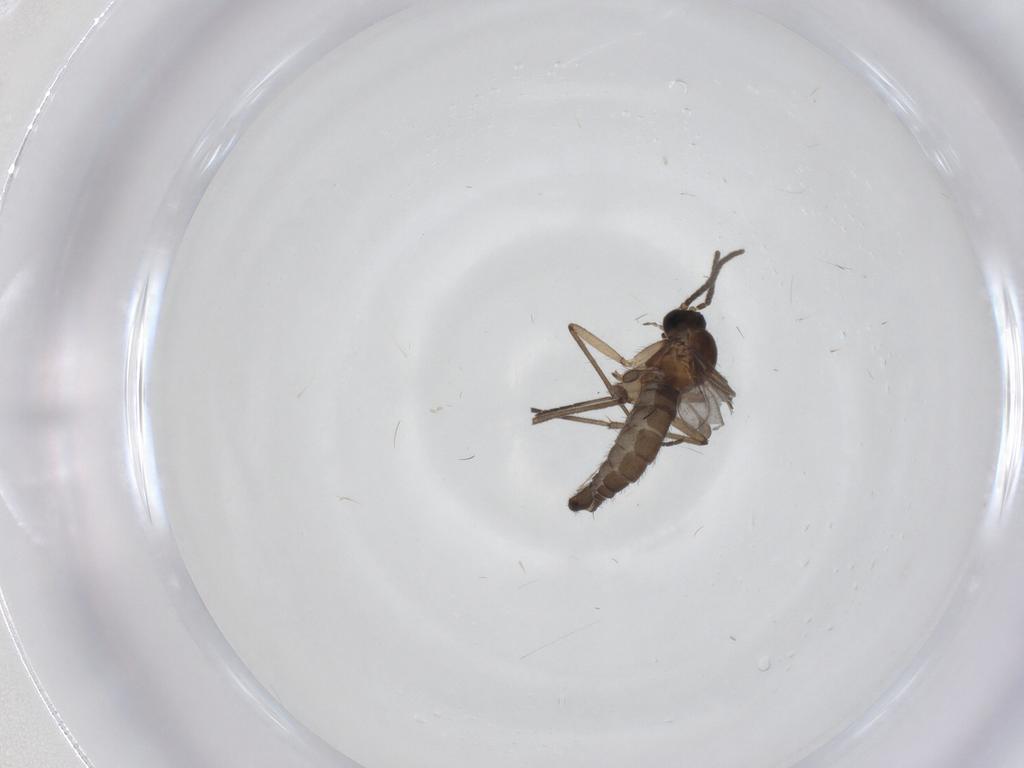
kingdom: Animalia
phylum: Arthropoda
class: Insecta
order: Diptera
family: Sciaridae
